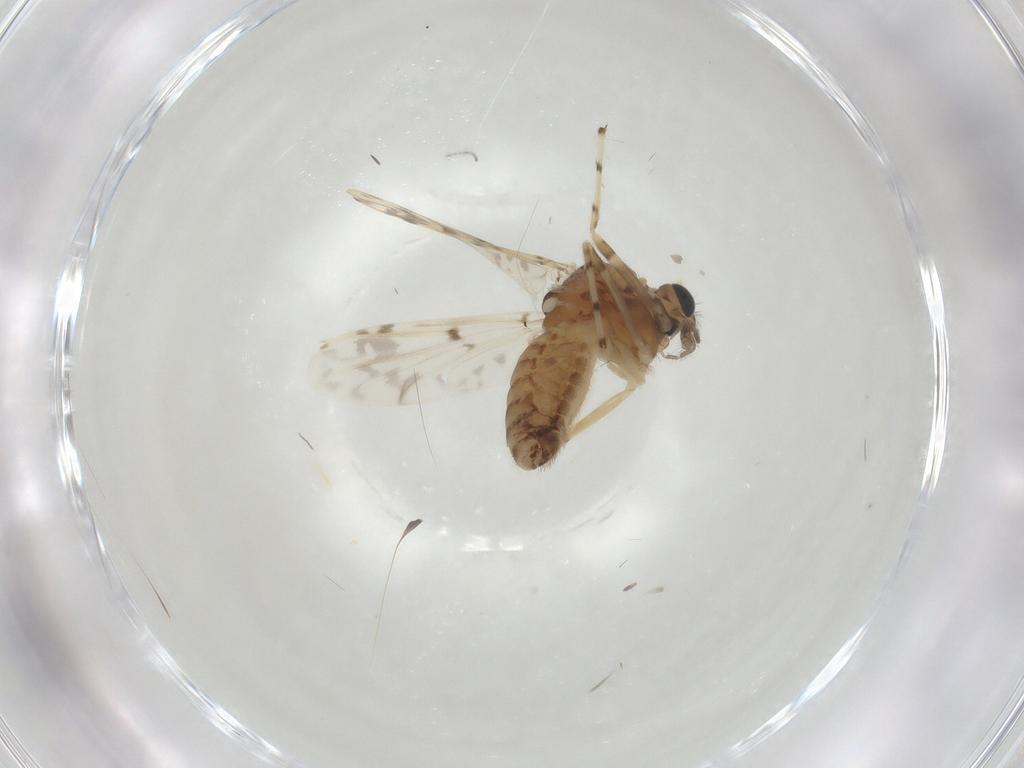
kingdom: Animalia
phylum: Arthropoda
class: Insecta
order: Diptera
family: Chironomidae
